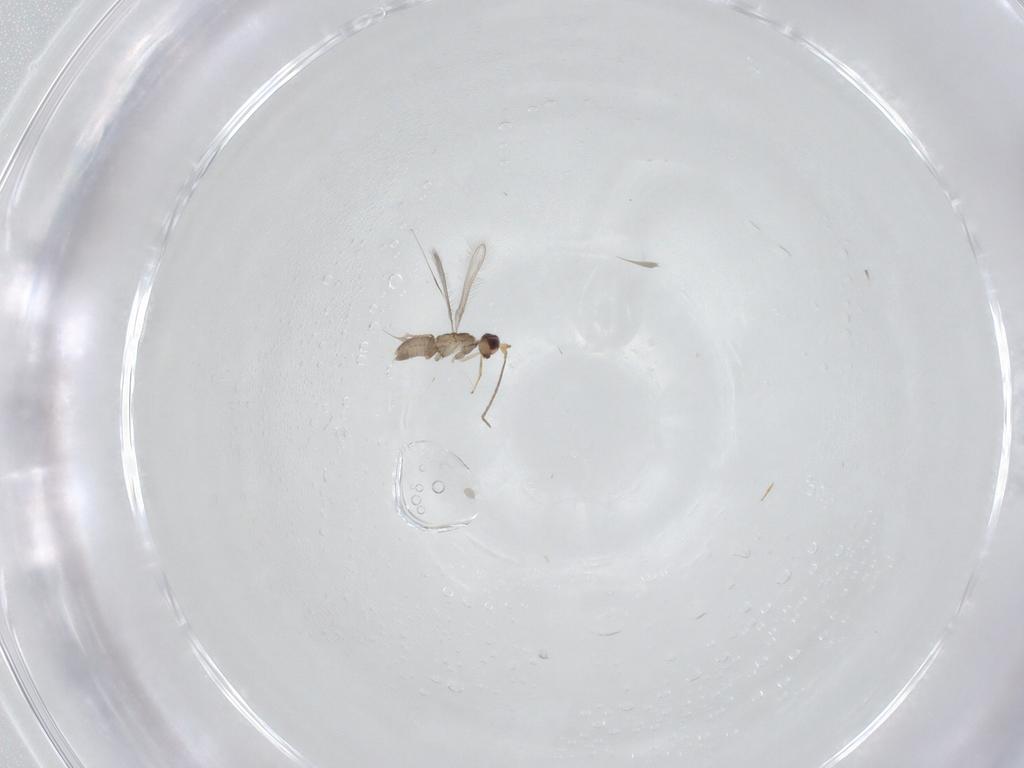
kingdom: Animalia
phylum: Arthropoda
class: Insecta
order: Hymenoptera
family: Mymaridae
